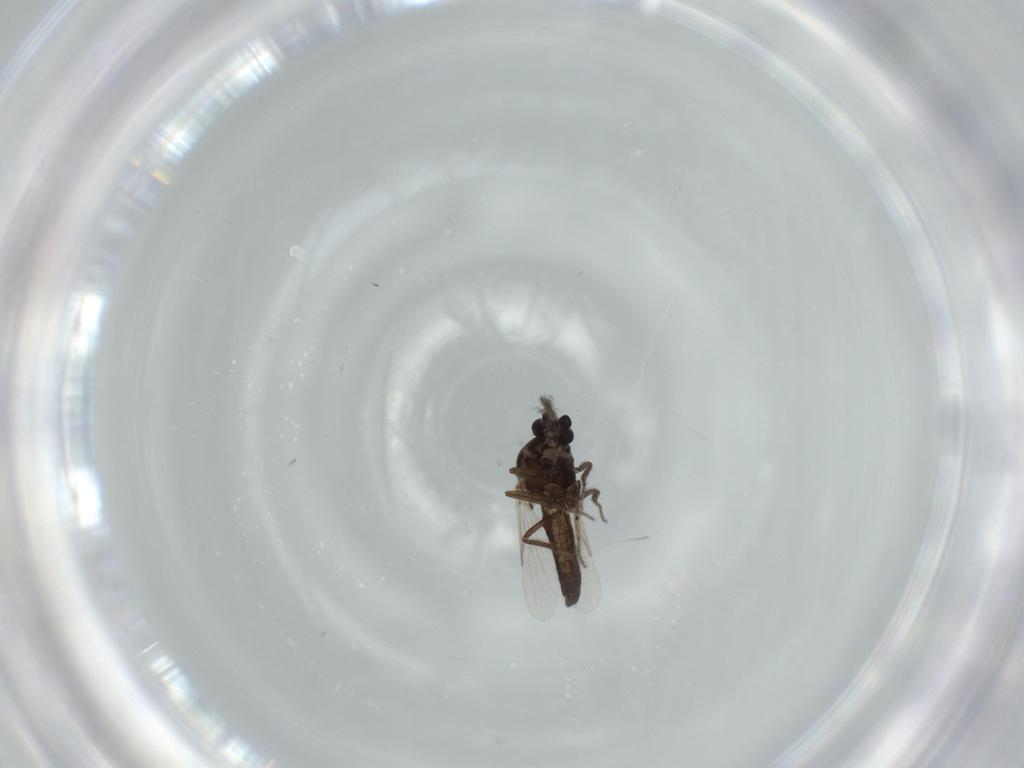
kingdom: Animalia
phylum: Arthropoda
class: Insecta
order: Diptera
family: Ceratopogonidae
